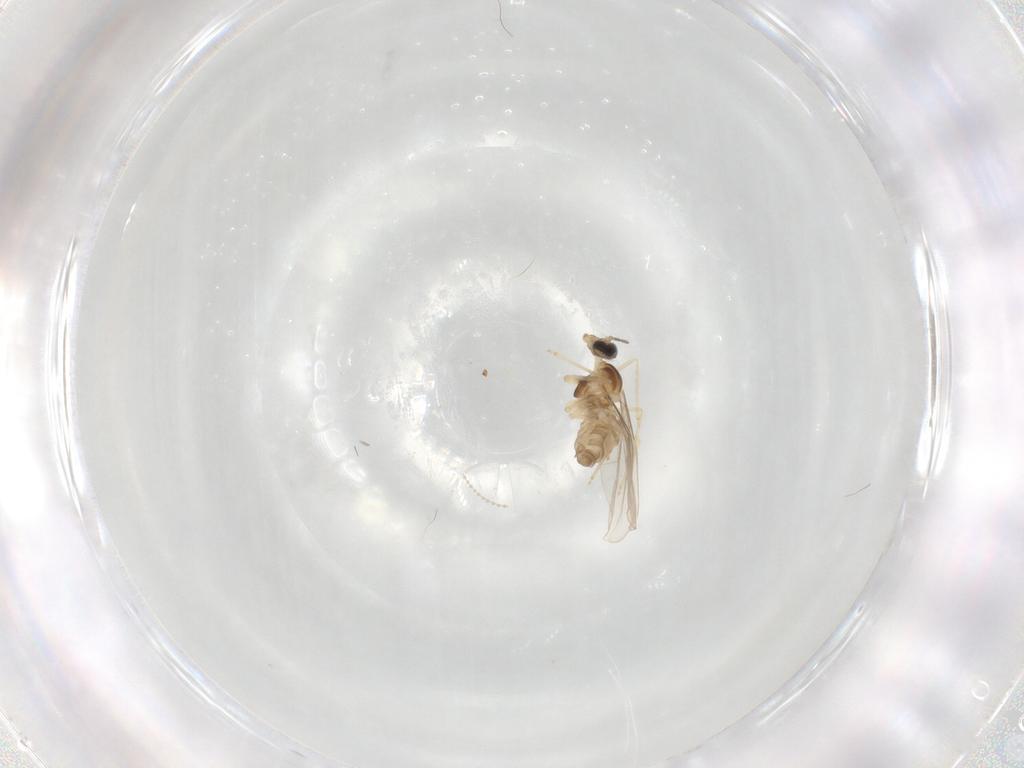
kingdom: Animalia
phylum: Arthropoda
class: Insecta
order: Diptera
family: Cecidomyiidae
